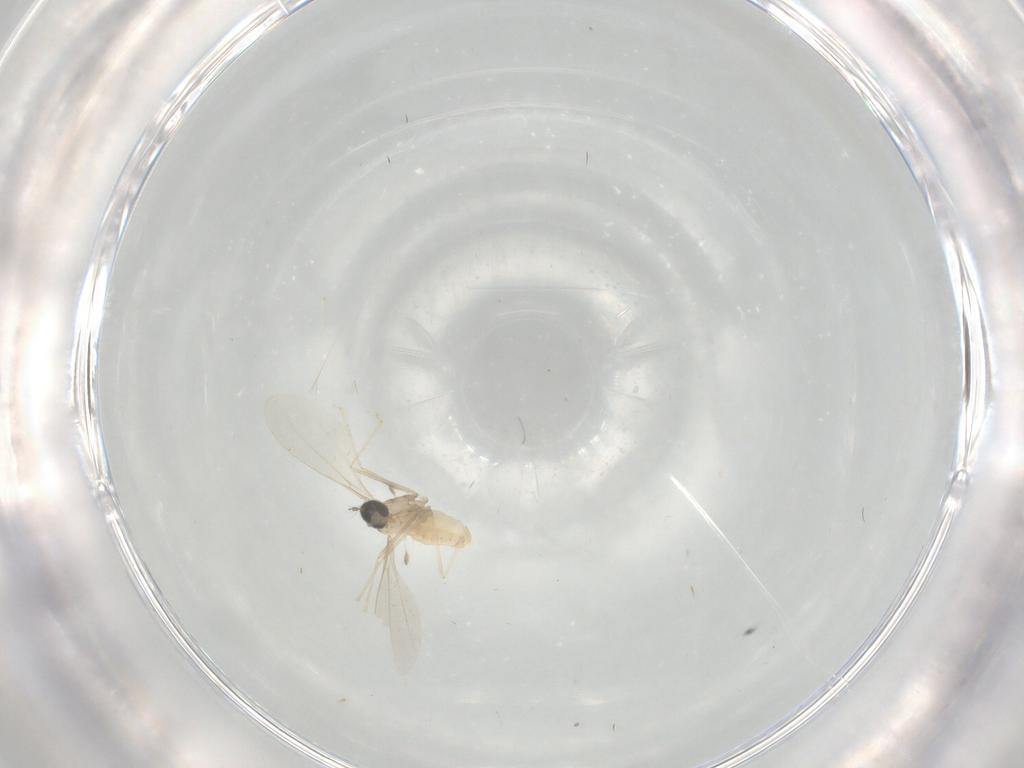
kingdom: Animalia
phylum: Arthropoda
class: Insecta
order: Diptera
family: Cecidomyiidae
